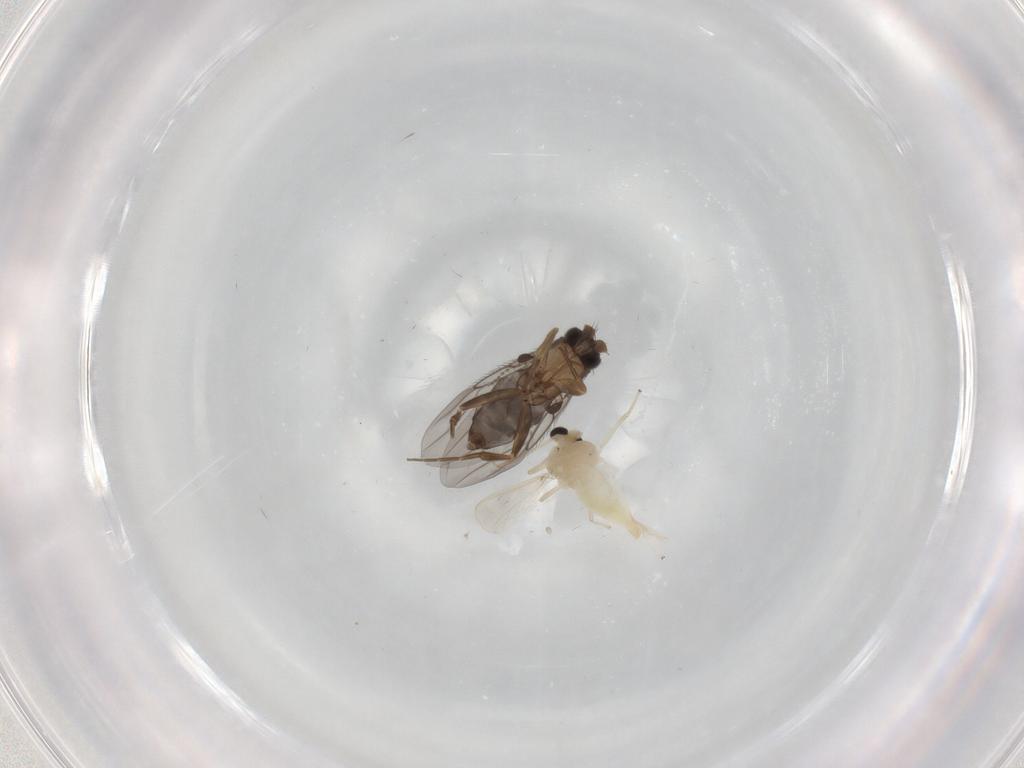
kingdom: Animalia
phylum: Arthropoda
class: Insecta
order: Diptera
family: Phoridae
